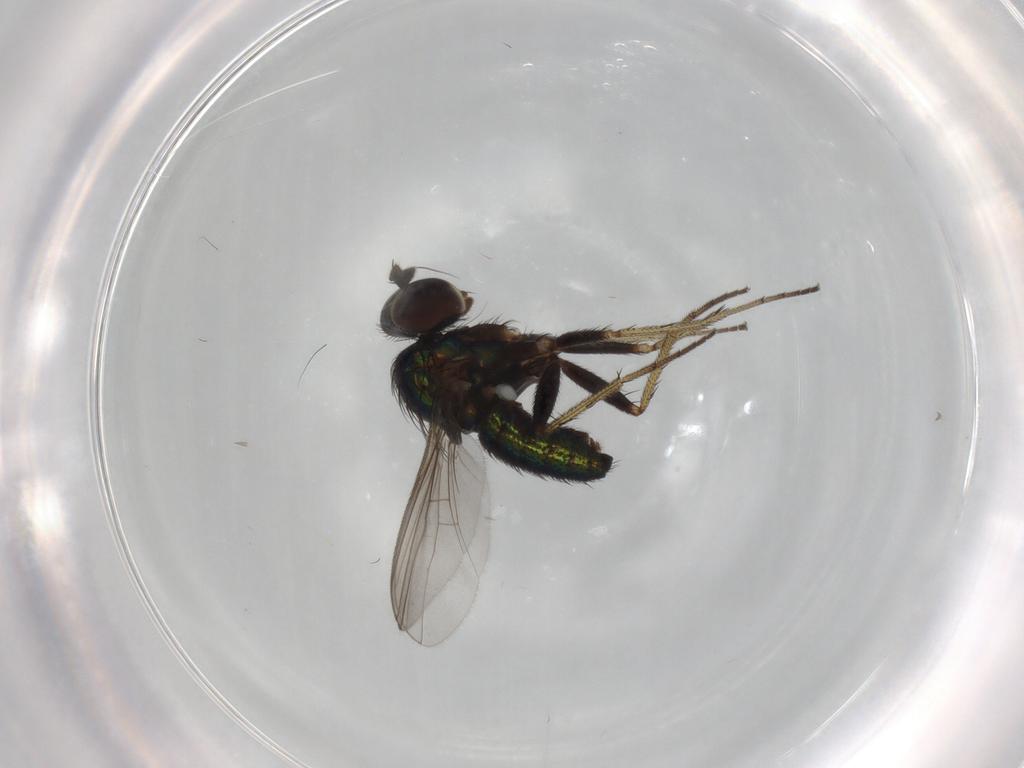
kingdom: Animalia
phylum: Arthropoda
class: Insecta
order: Diptera
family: Dolichopodidae
